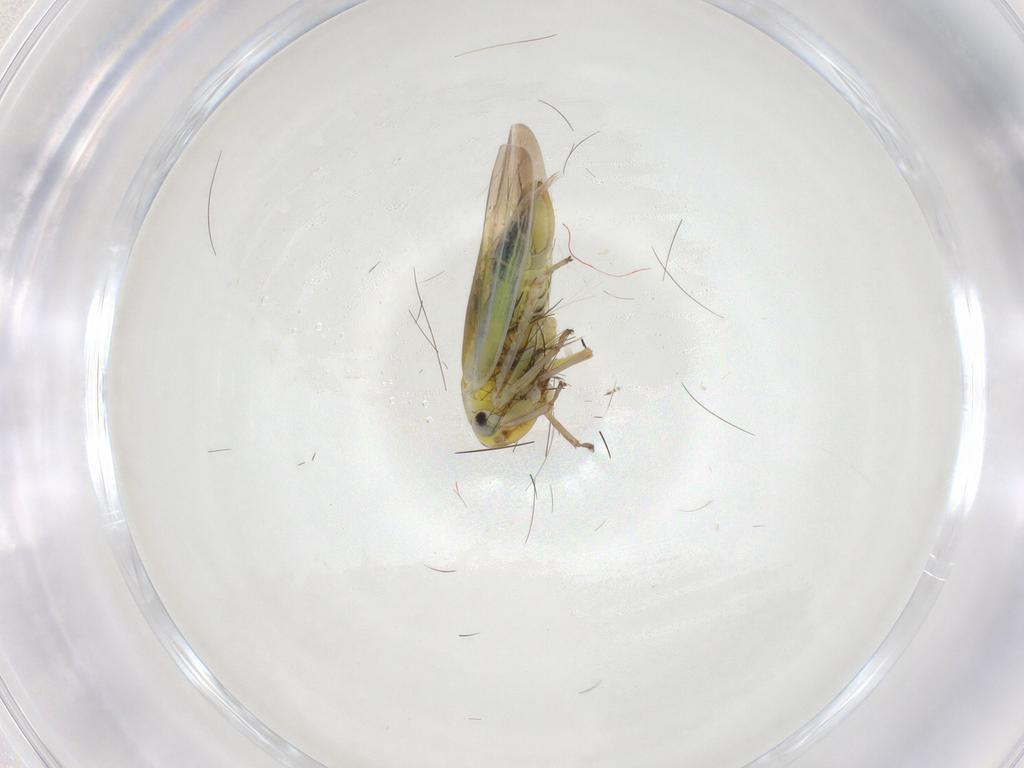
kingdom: Animalia
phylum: Arthropoda
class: Insecta
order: Hemiptera
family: Cicadellidae
